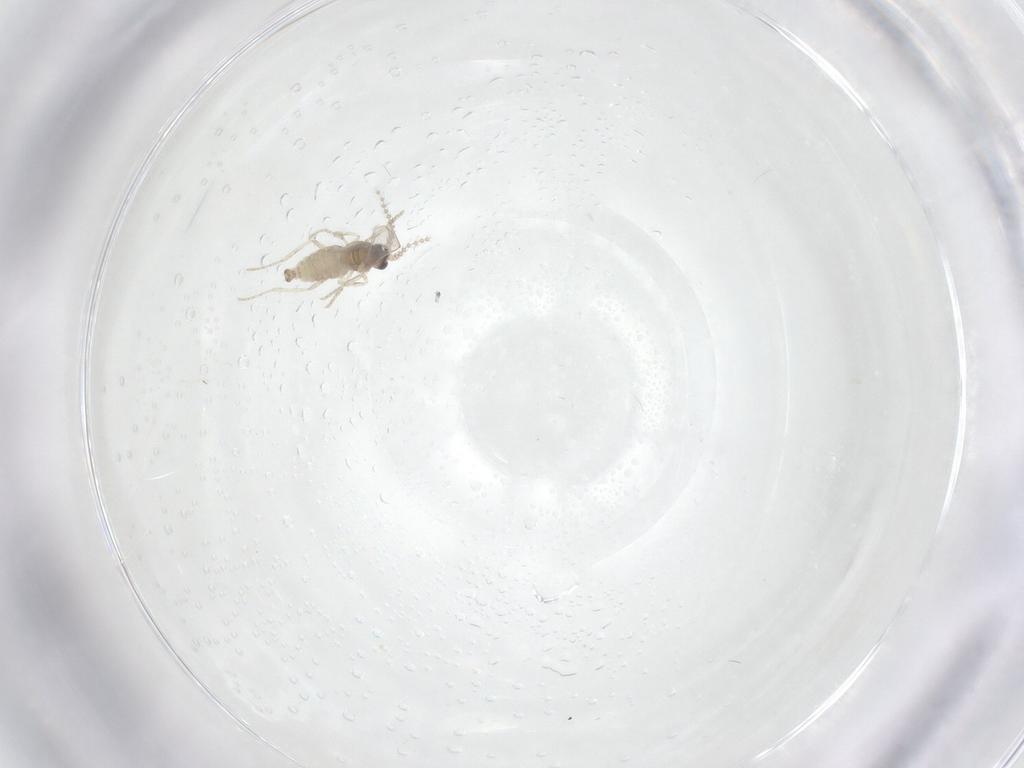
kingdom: Animalia
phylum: Arthropoda
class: Insecta
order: Diptera
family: Cecidomyiidae
